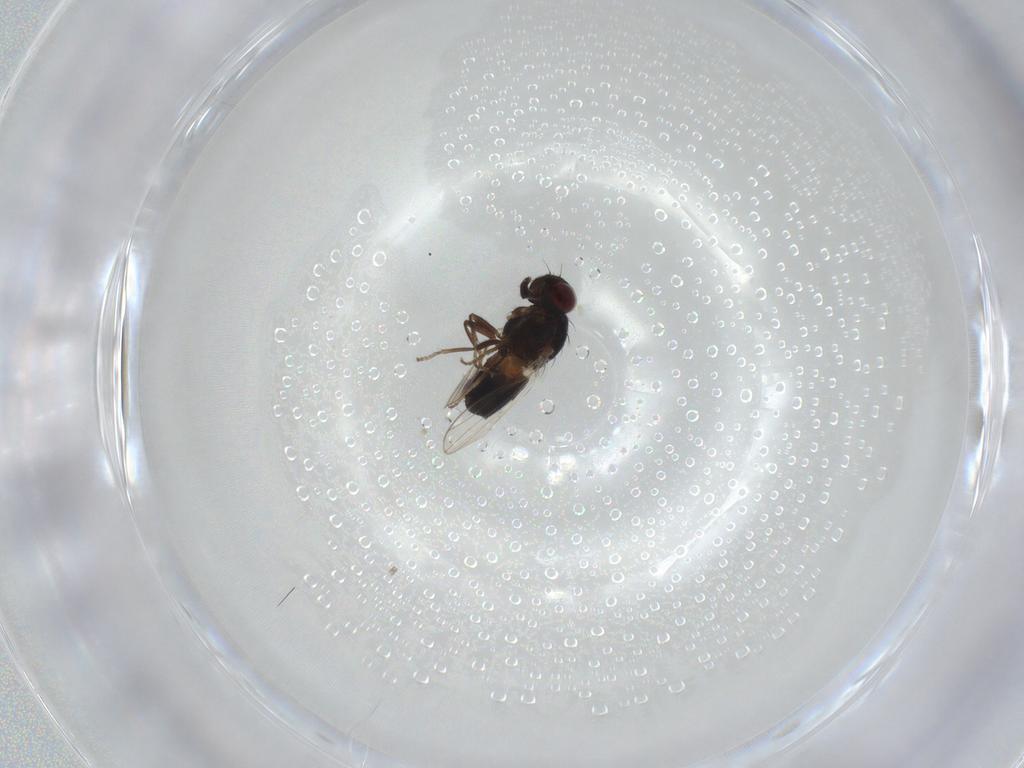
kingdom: Animalia
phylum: Arthropoda
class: Insecta
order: Diptera
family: Carnidae
